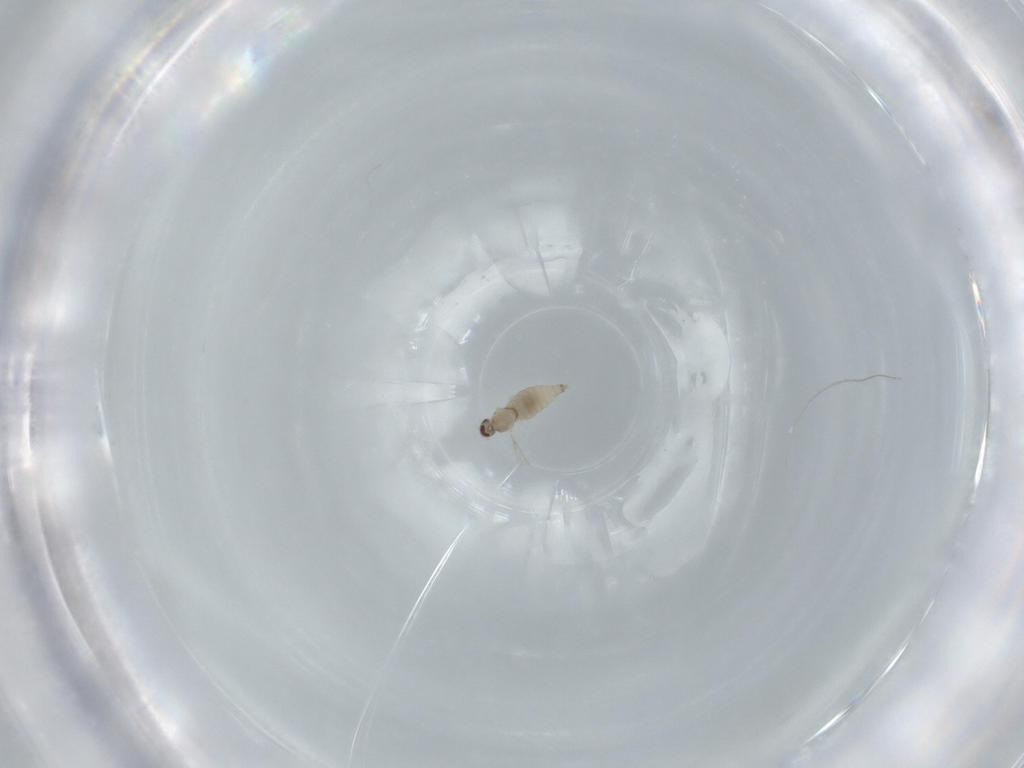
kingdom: Animalia
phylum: Arthropoda
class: Insecta
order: Diptera
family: Cecidomyiidae
